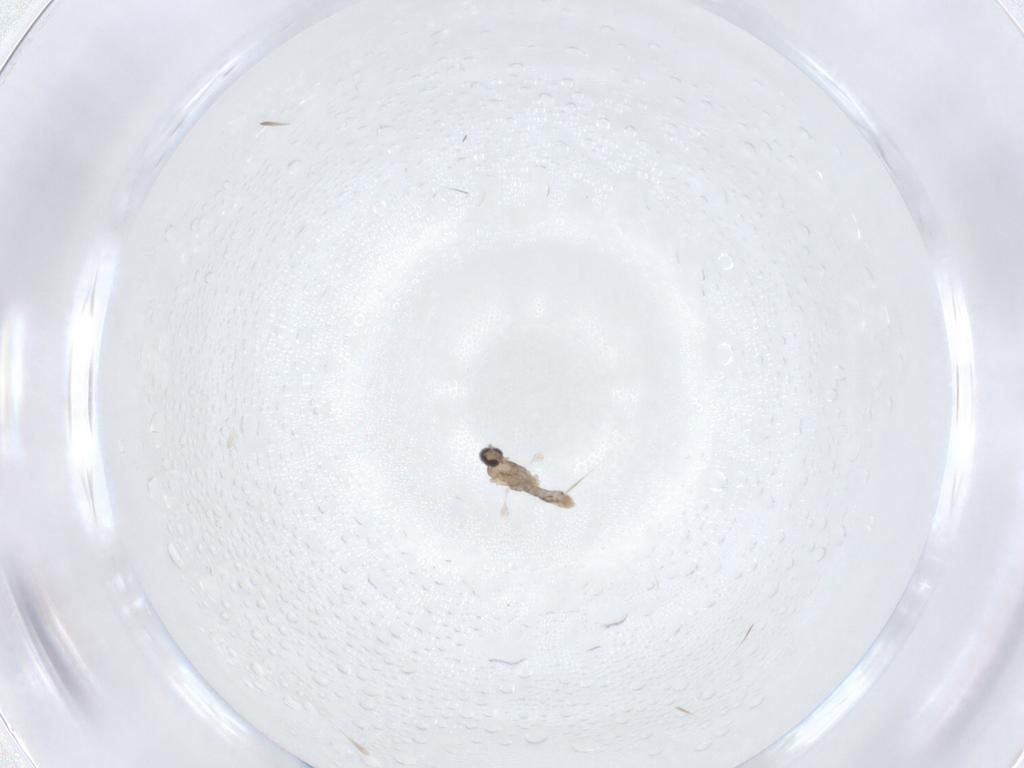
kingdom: Animalia
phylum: Arthropoda
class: Insecta
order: Diptera
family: Cecidomyiidae
